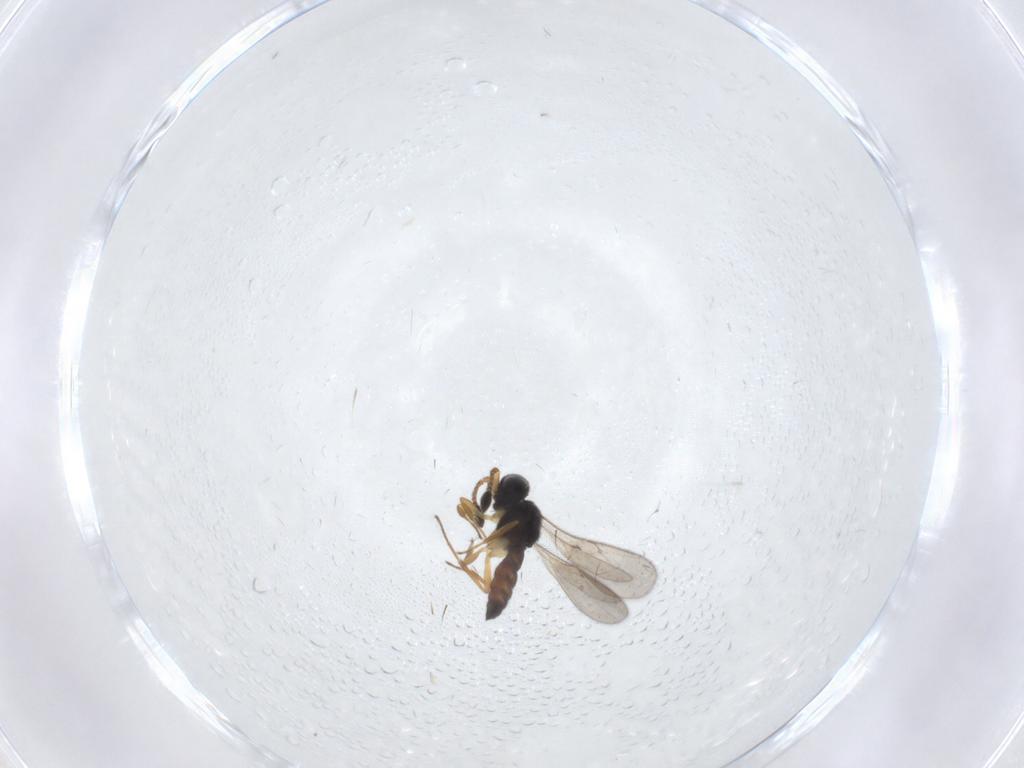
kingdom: Animalia
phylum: Arthropoda
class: Insecta
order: Hymenoptera
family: Scelionidae
